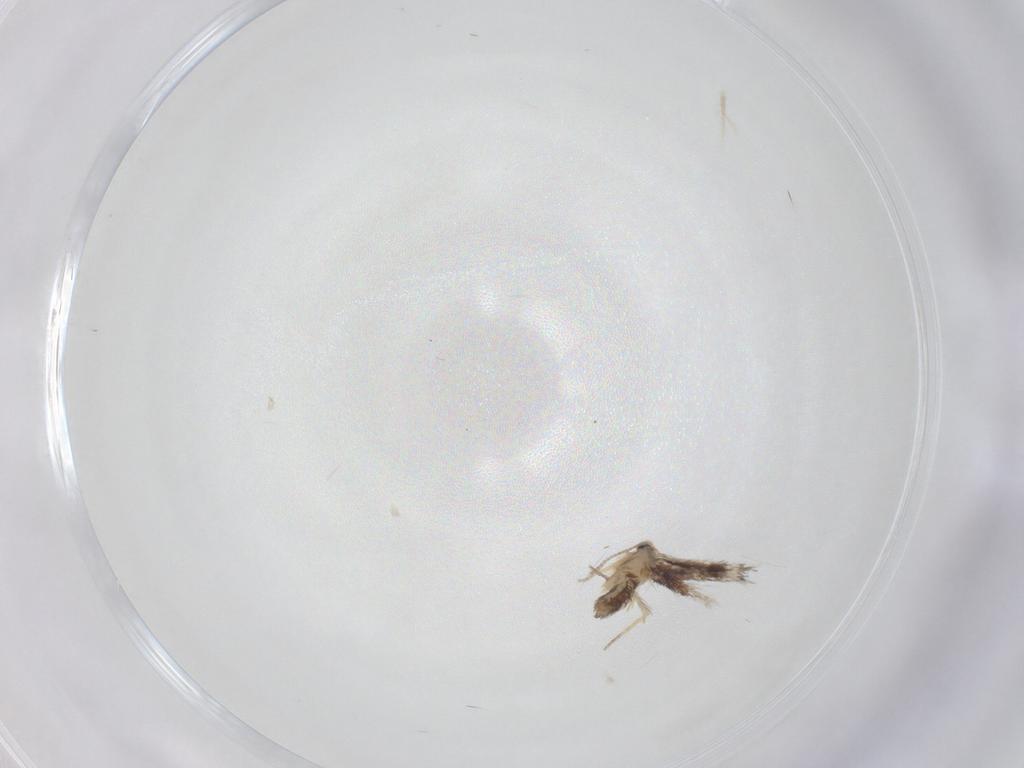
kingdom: Animalia
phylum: Arthropoda
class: Insecta
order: Lepidoptera
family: Nepticulidae
